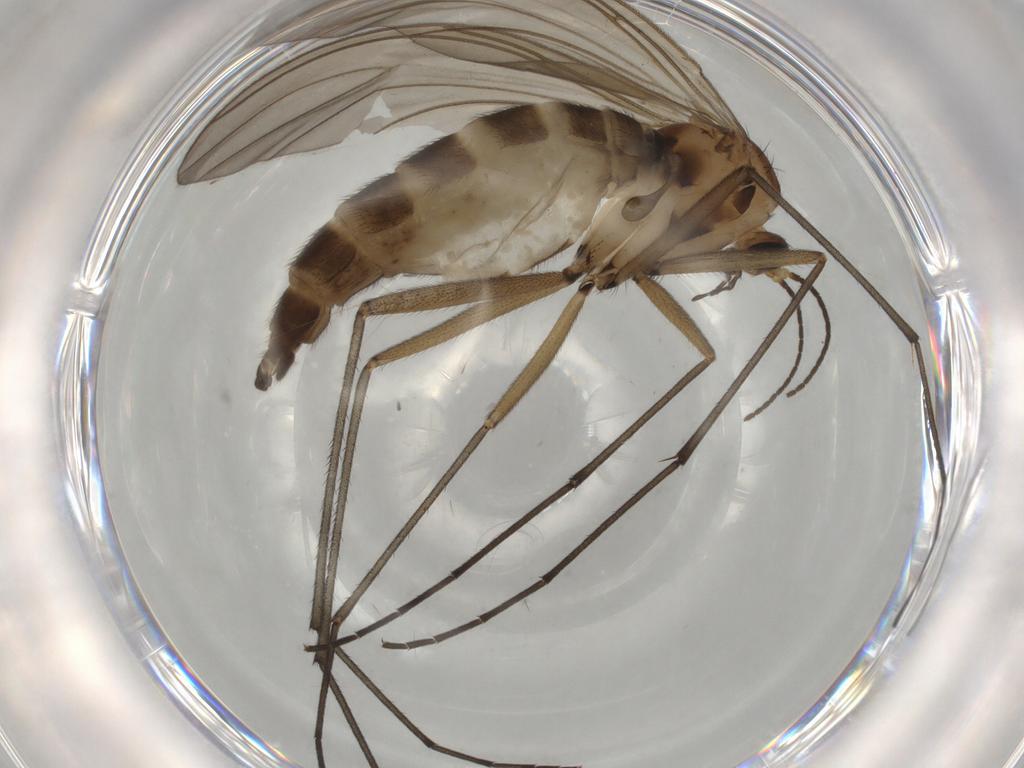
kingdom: Animalia
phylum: Arthropoda
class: Insecta
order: Diptera
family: Sciaridae
